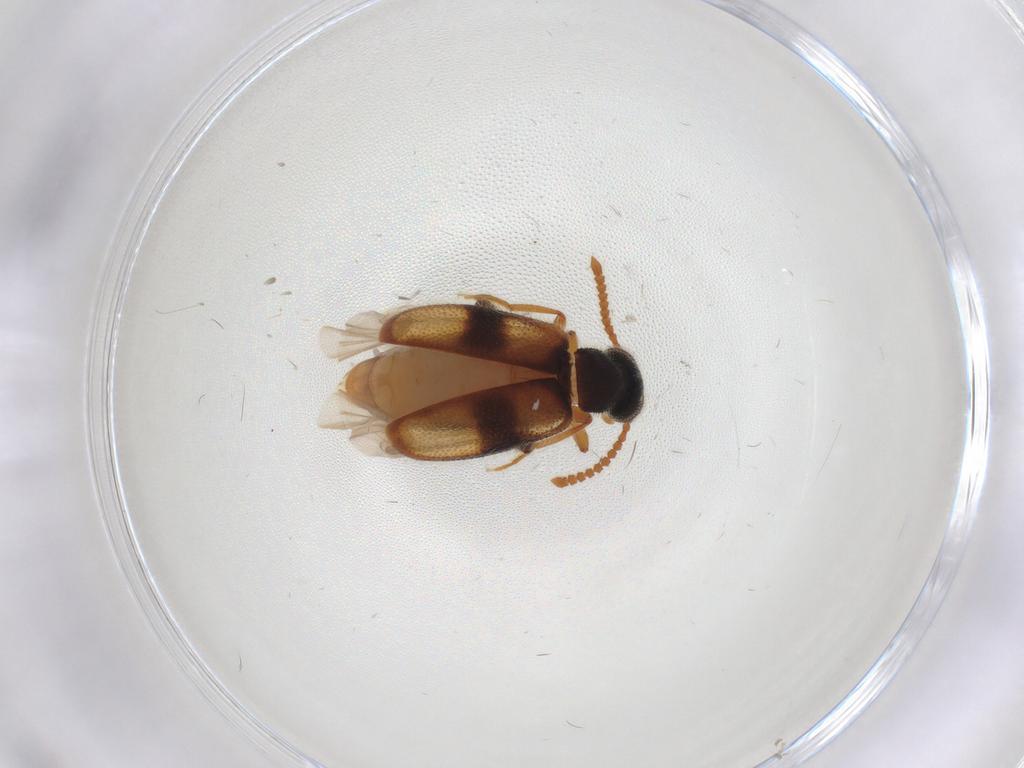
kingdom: Animalia
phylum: Arthropoda
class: Insecta
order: Coleoptera
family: Aderidae
